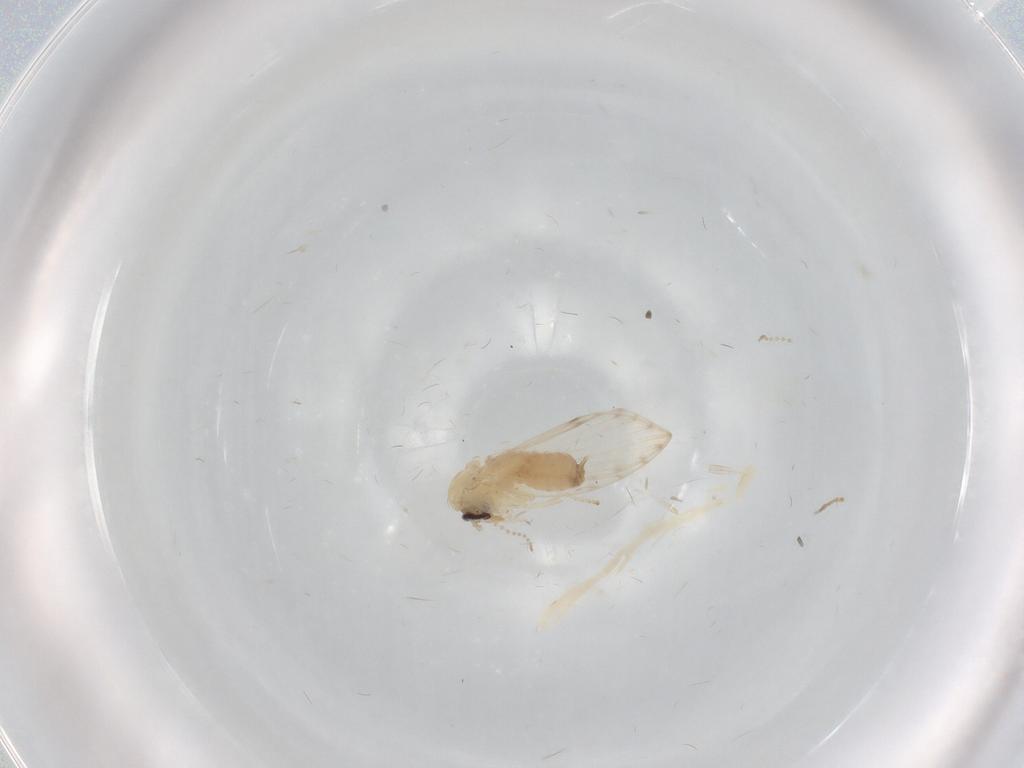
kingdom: Animalia
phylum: Arthropoda
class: Insecta
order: Diptera
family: Psychodidae
